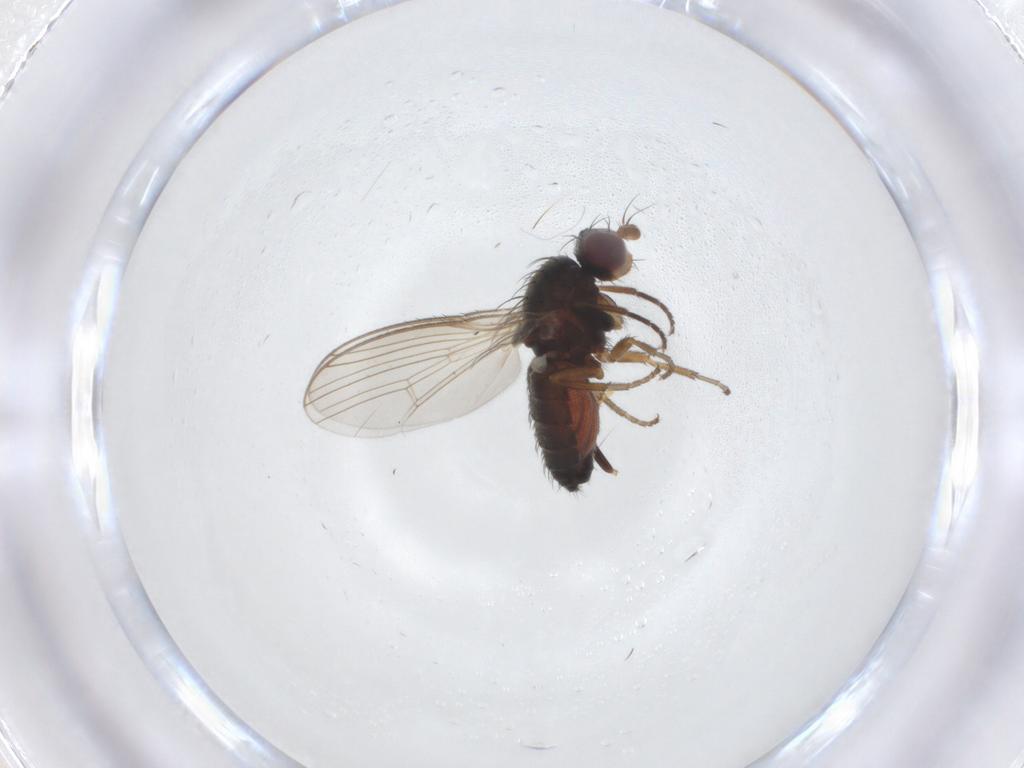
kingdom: Animalia
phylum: Arthropoda
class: Insecta
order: Diptera
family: Heleomyzidae
